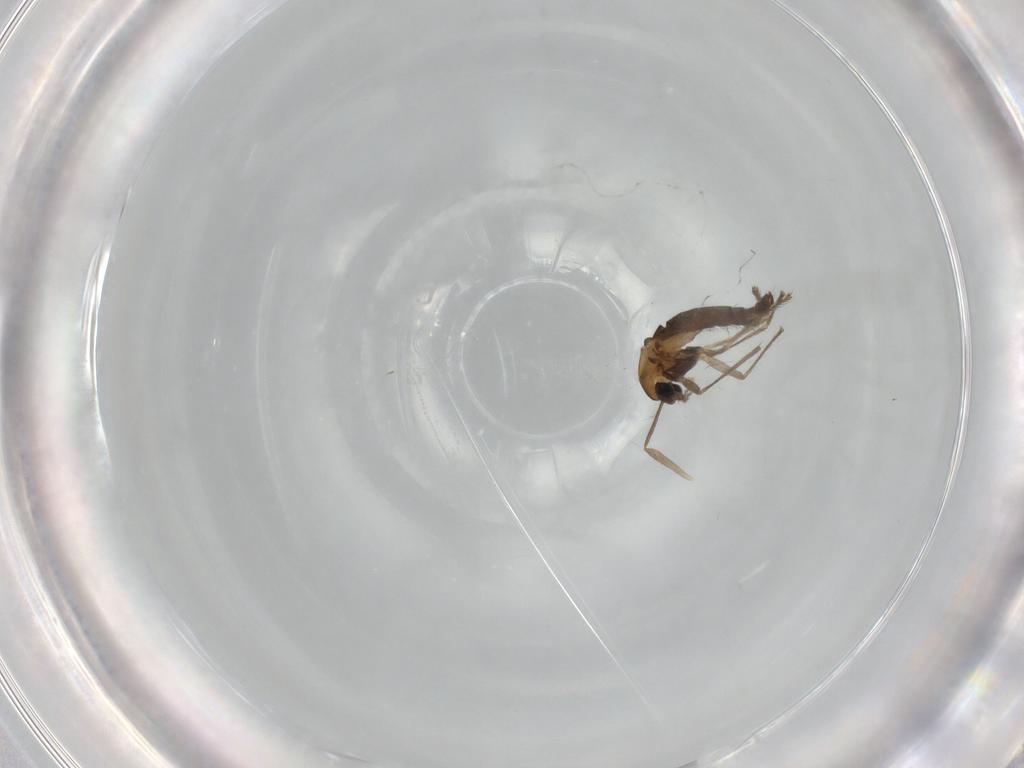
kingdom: Animalia
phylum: Arthropoda
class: Insecta
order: Diptera
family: Chironomidae
